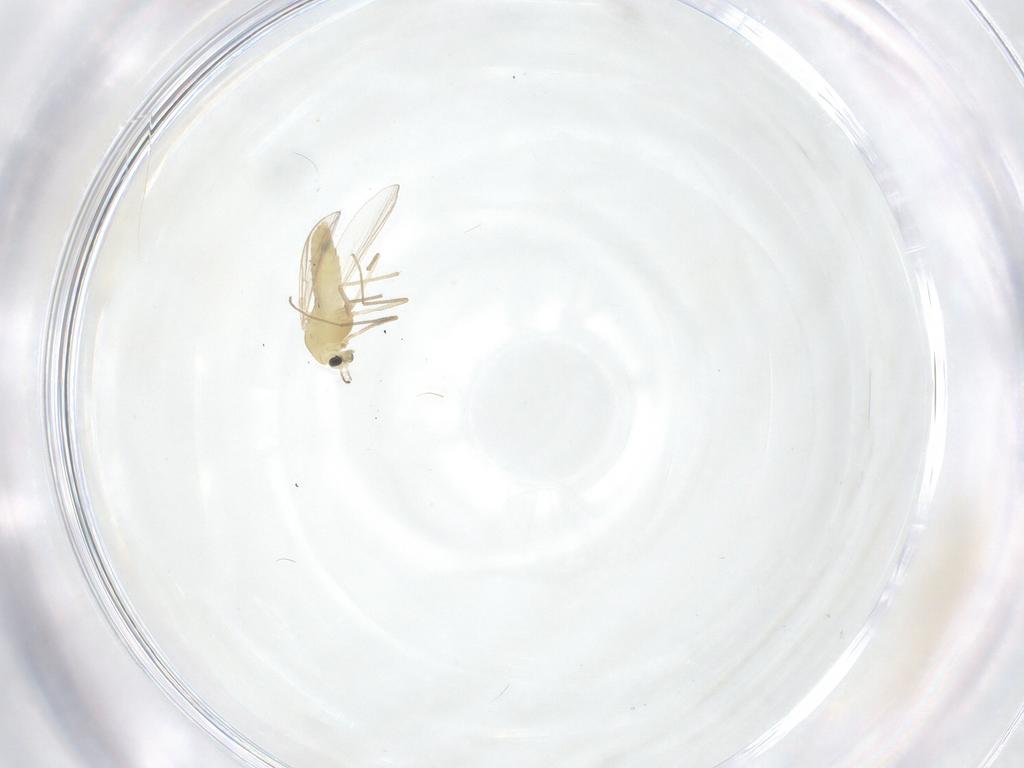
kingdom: Animalia
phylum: Arthropoda
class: Insecta
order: Diptera
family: Chironomidae
